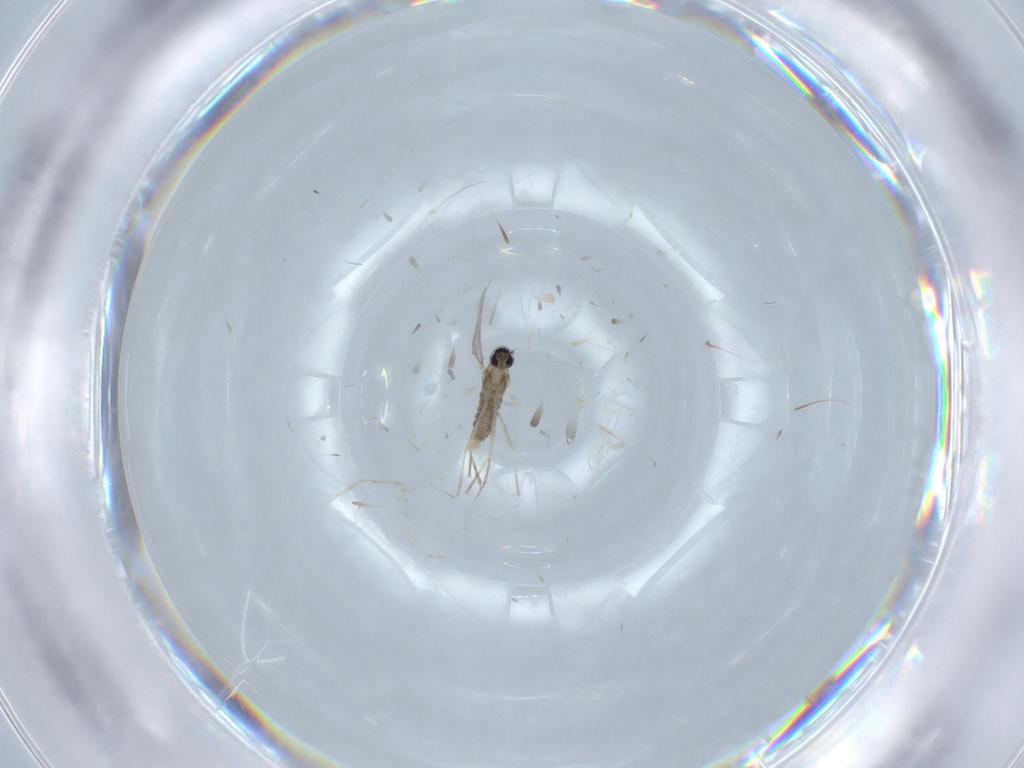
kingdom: Animalia
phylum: Arthropoda
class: Insecta
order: Diptera
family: Cecidomyiidae
